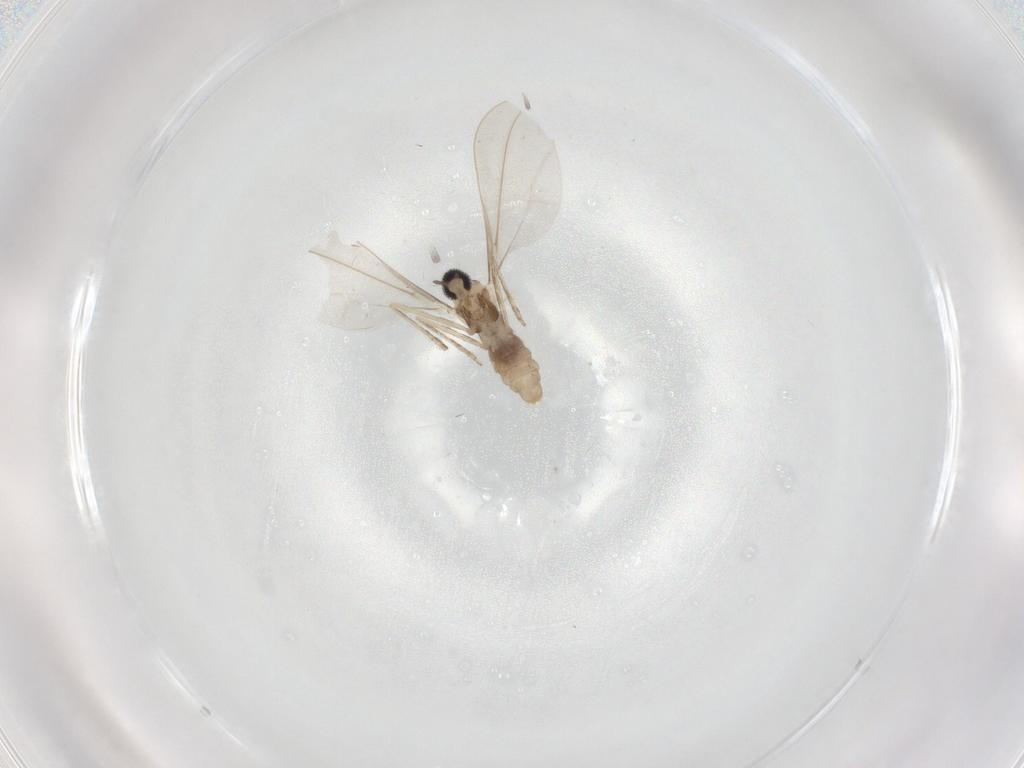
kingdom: Animalia
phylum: Arthropoda
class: Insecta
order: Diptera
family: Cecidomyiidae
